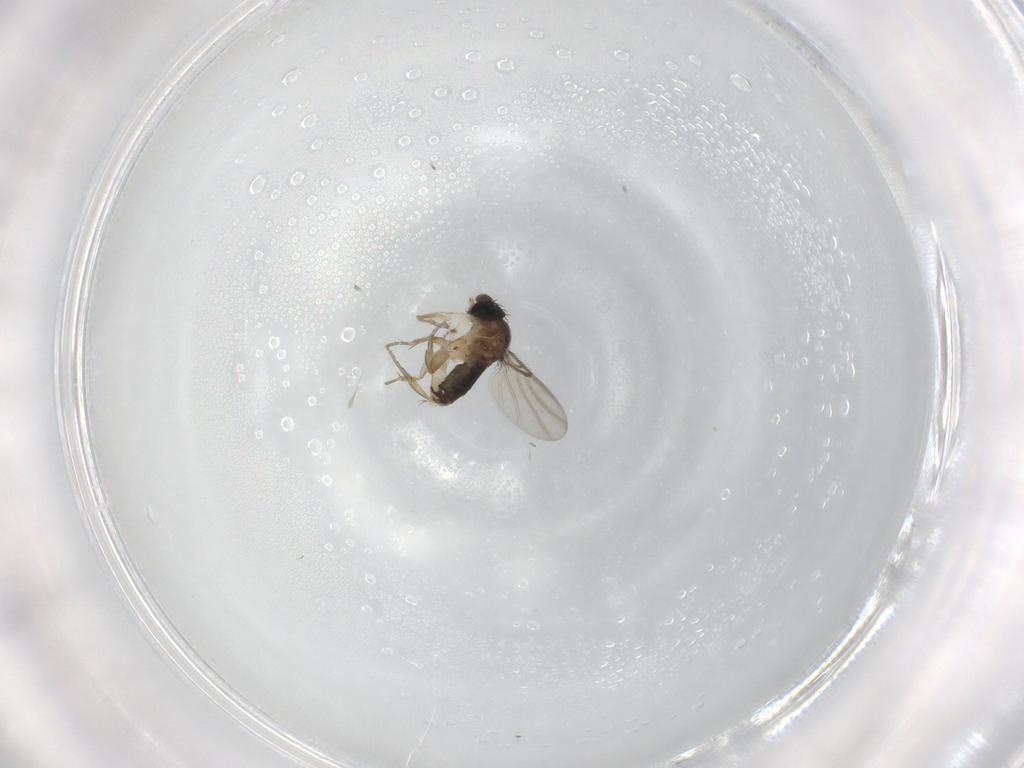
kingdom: Animalia
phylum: Arthropoda
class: Insecta
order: Diptera
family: Phoridae
